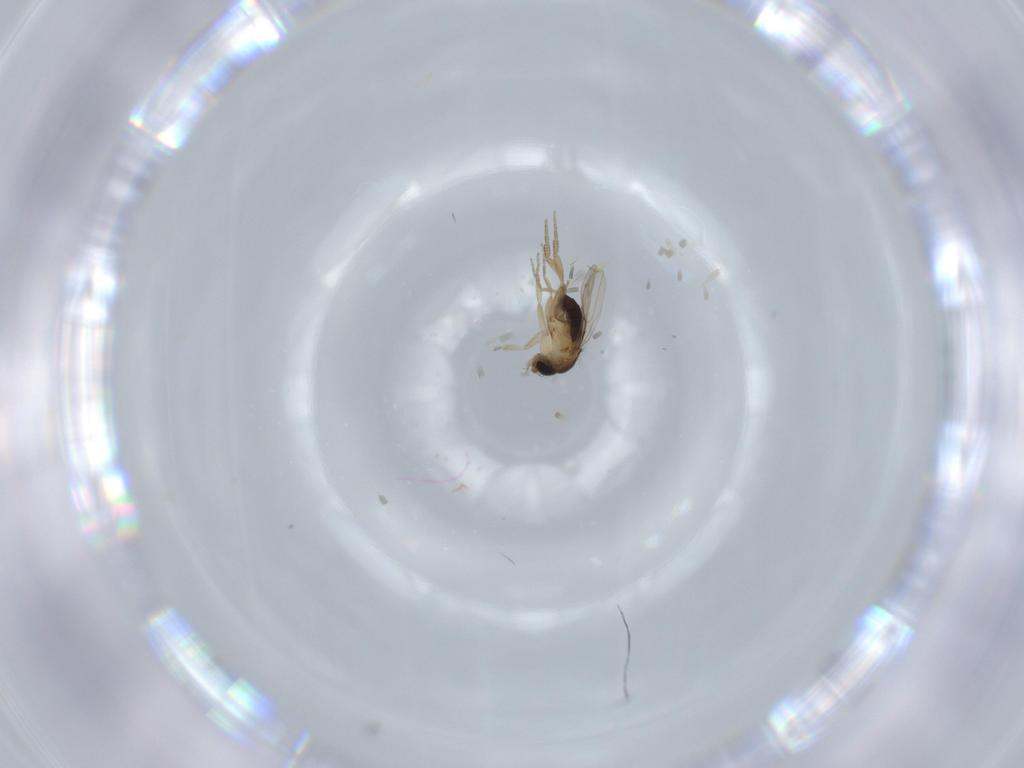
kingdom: Animalia
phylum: Arthropoda
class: Insecta
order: Diptera
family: Phoridae
